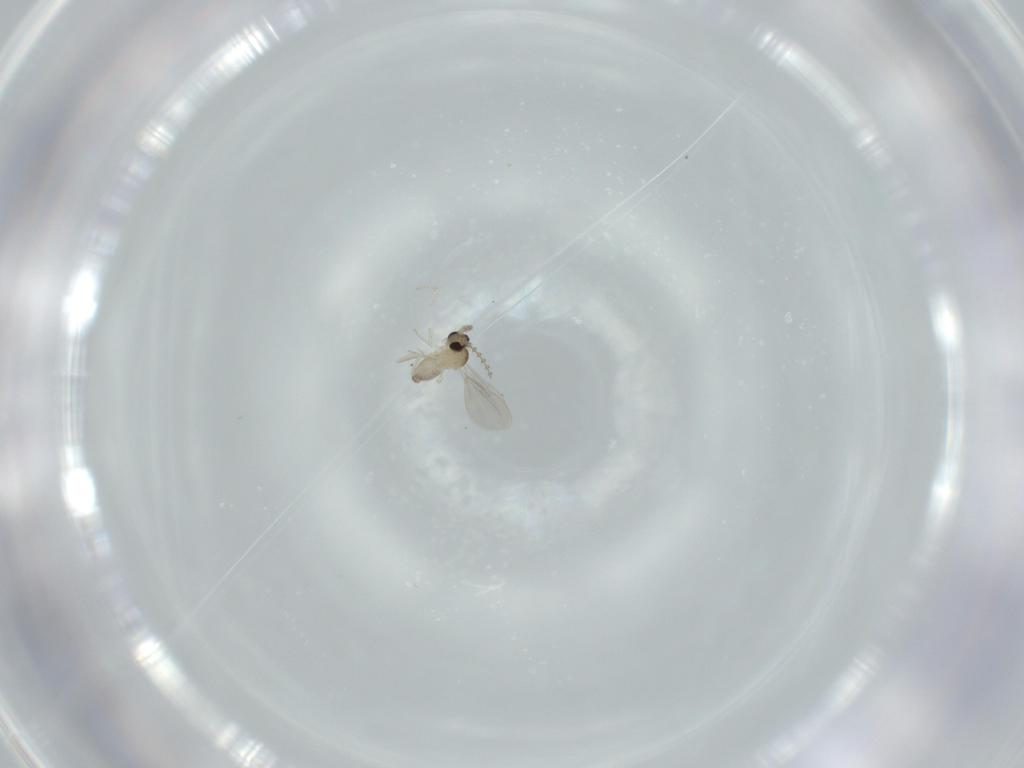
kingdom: Animalia
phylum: Arthropoda
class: Insecta
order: Diptera
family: Cecidomyiidae
